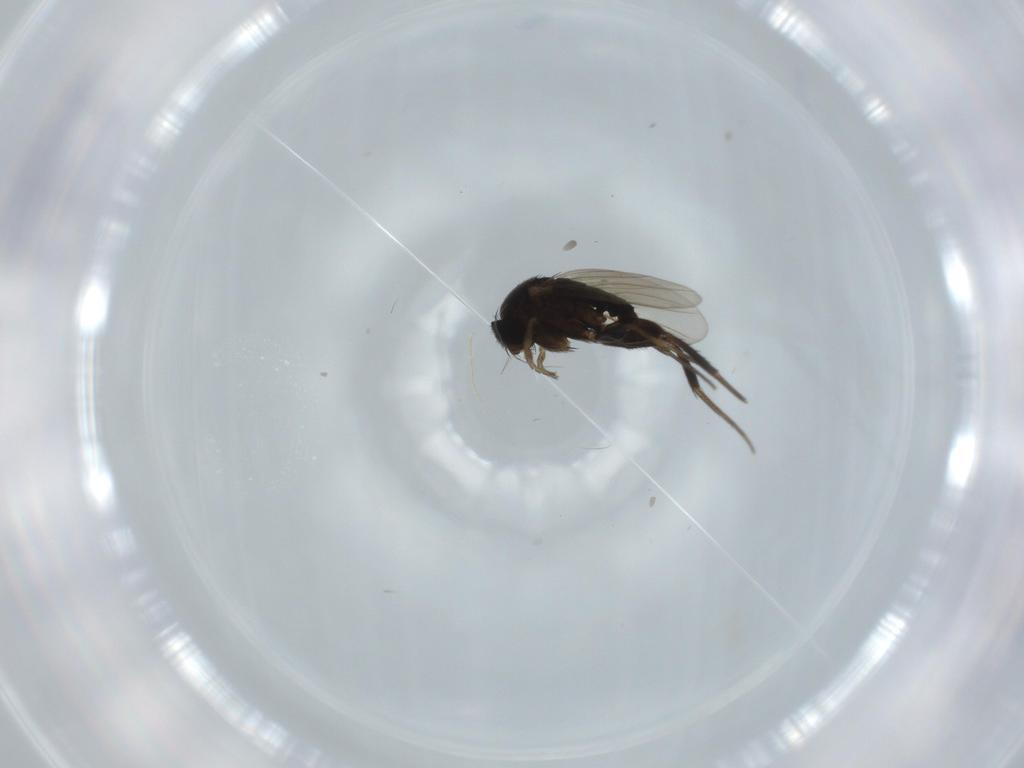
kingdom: Animalia
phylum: Arthropoda
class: Insecta
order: Diptera
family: Phoridae
